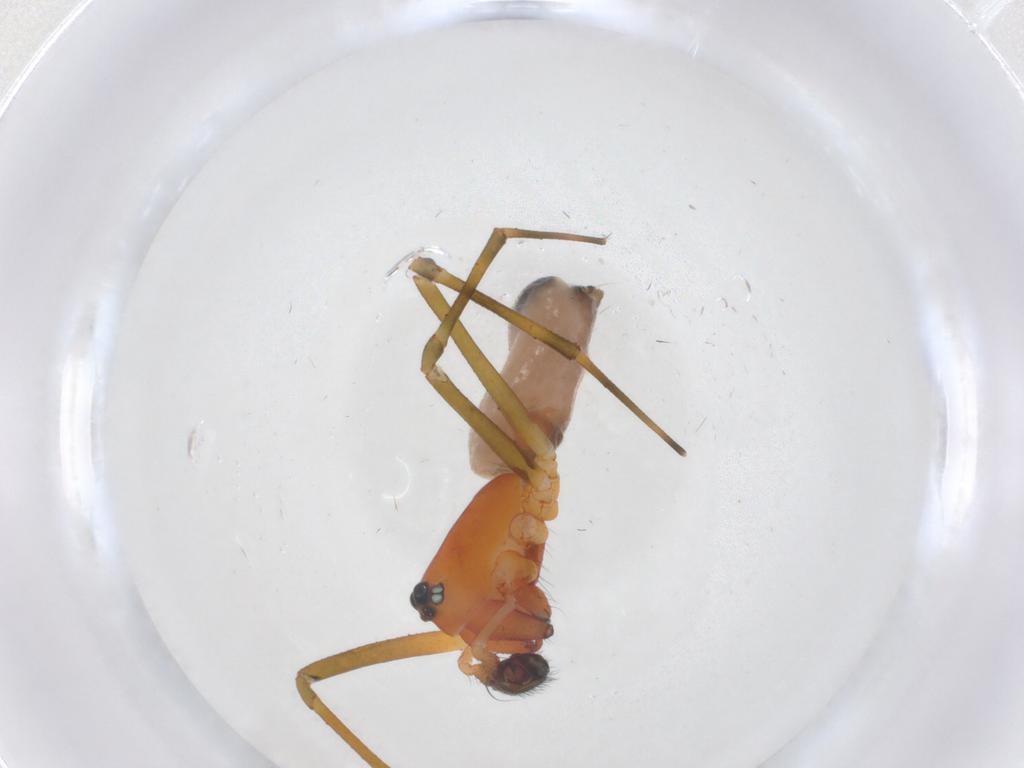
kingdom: Animalia
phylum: Arthropoda
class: Arachnida
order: Araneae
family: Linyphiidae
